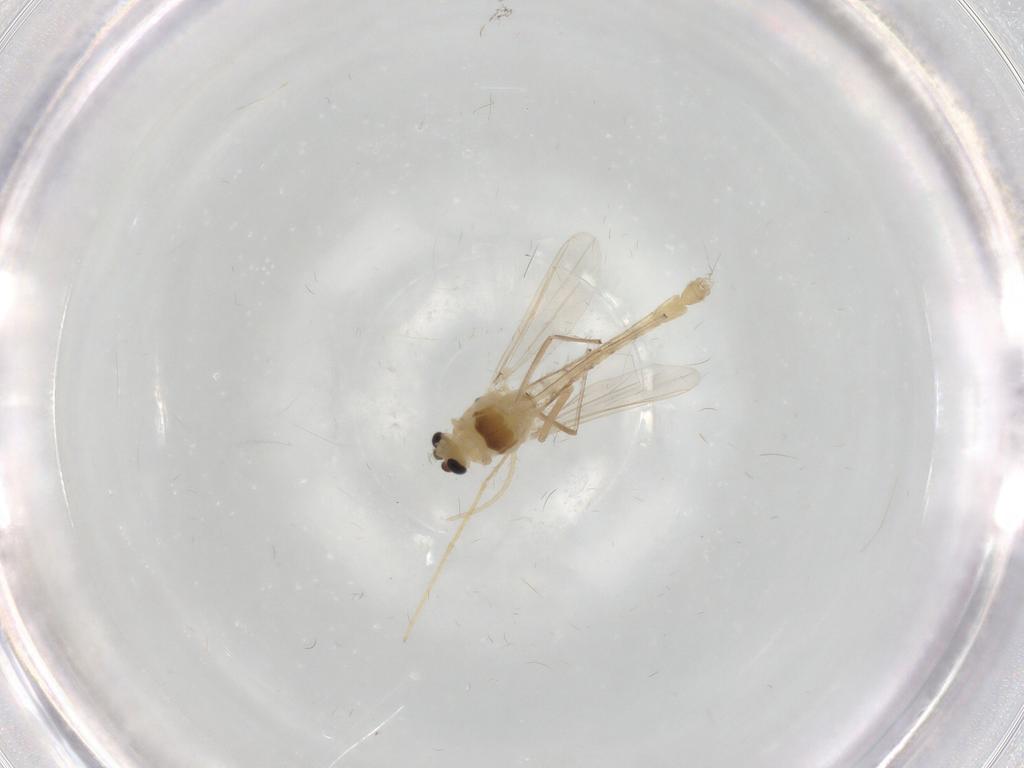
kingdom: Animalia
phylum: Arthropoda
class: Insecta
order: Diptera
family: Chironomidae
